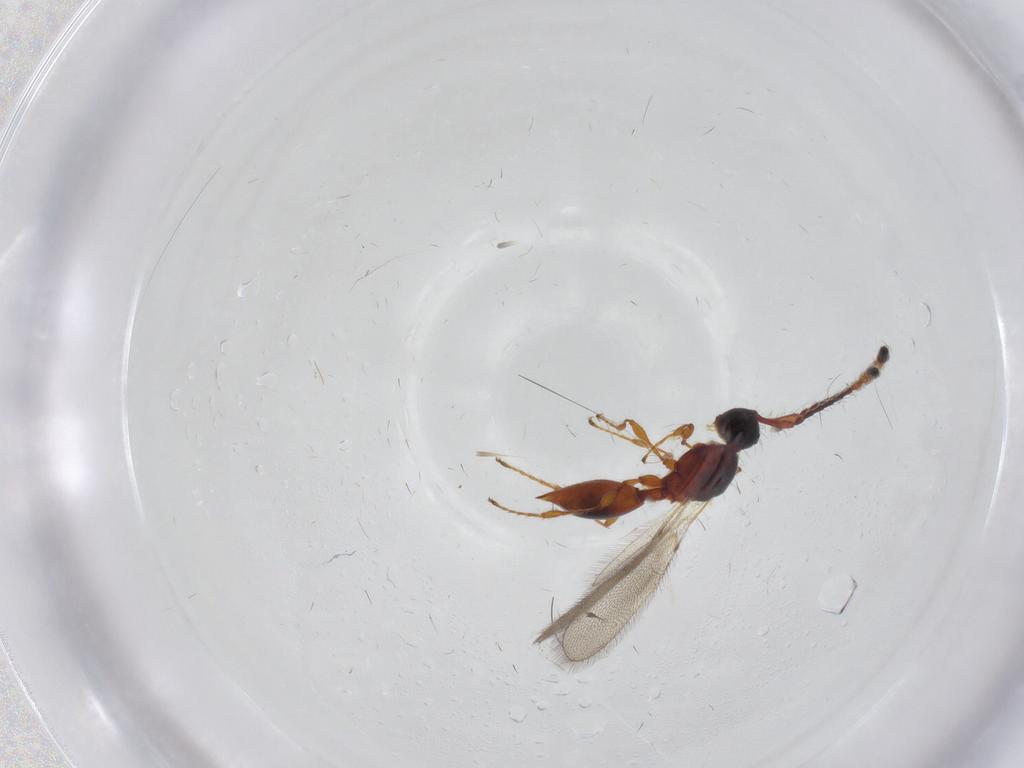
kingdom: Animalia
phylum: Arthropoda
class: Insecta
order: Hymenoptera
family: Diapriidae
